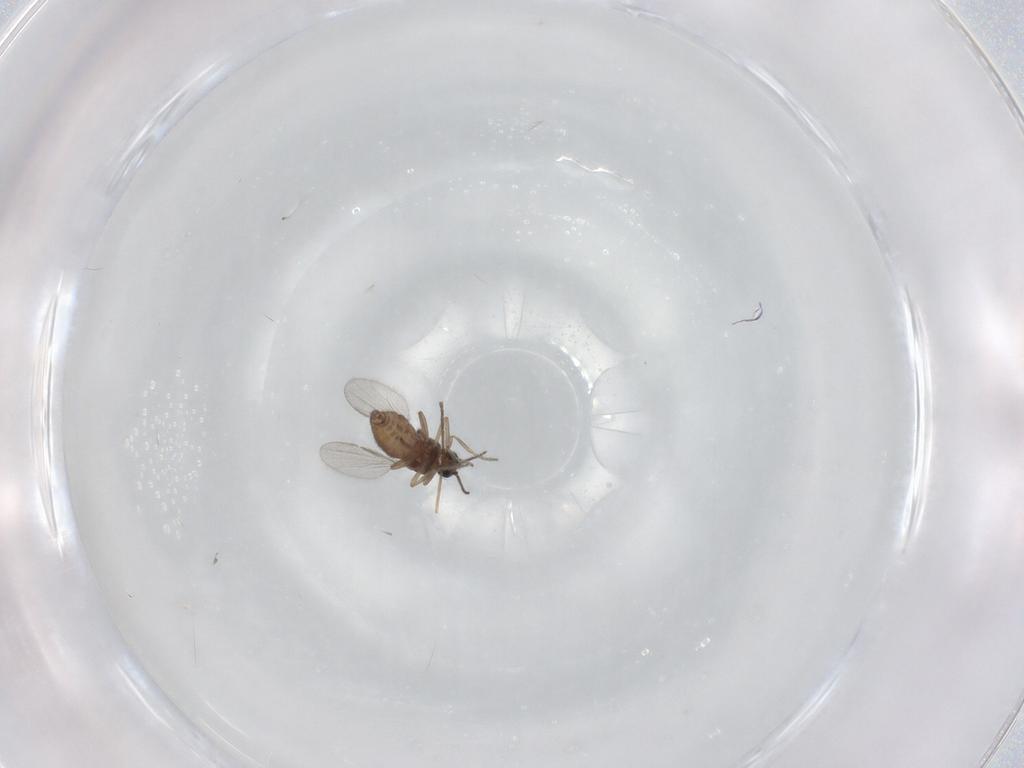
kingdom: Animalia
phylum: Arthropoda
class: Insecta
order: Diptera
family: Ceratopogonidae
